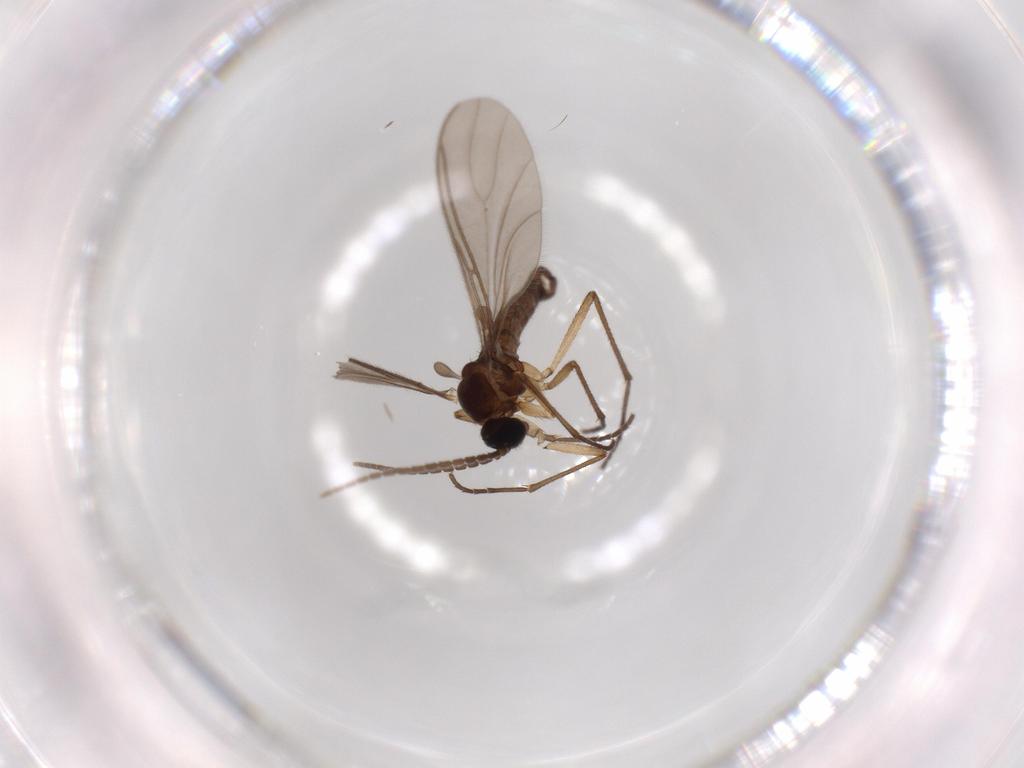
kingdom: Animalia
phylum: Arthropoda
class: Insecta
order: Diptera
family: Sciaridae
